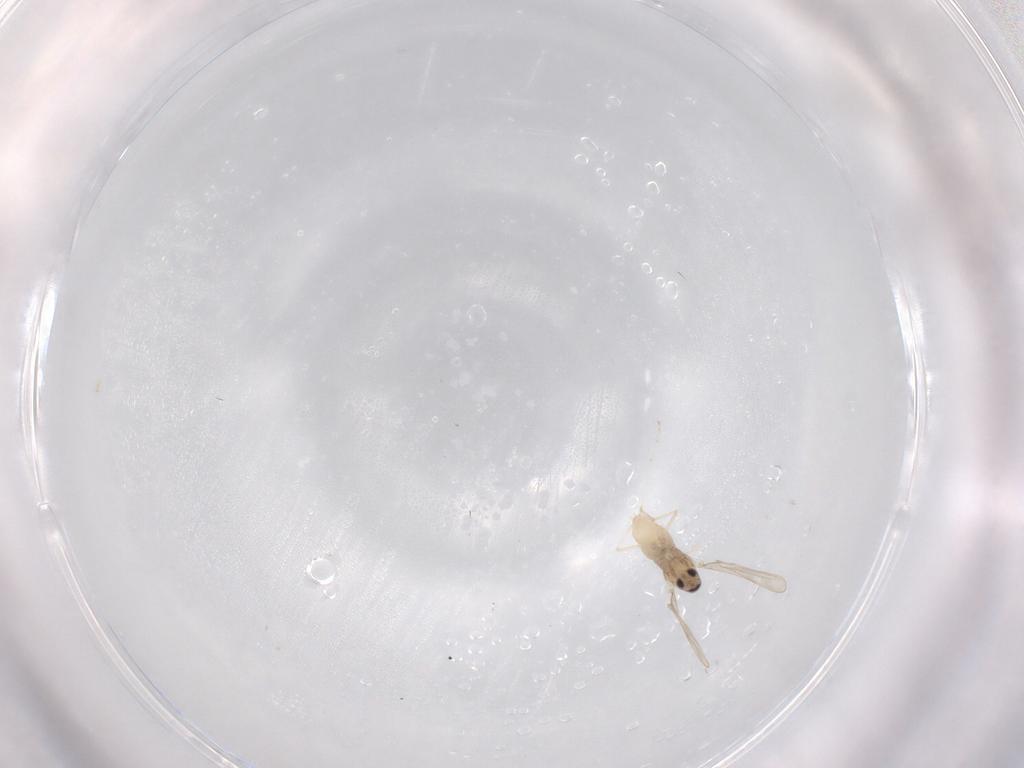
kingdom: Animalia
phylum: Arthropoda
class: Insecta
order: Diptera
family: Cecidomyiidae
